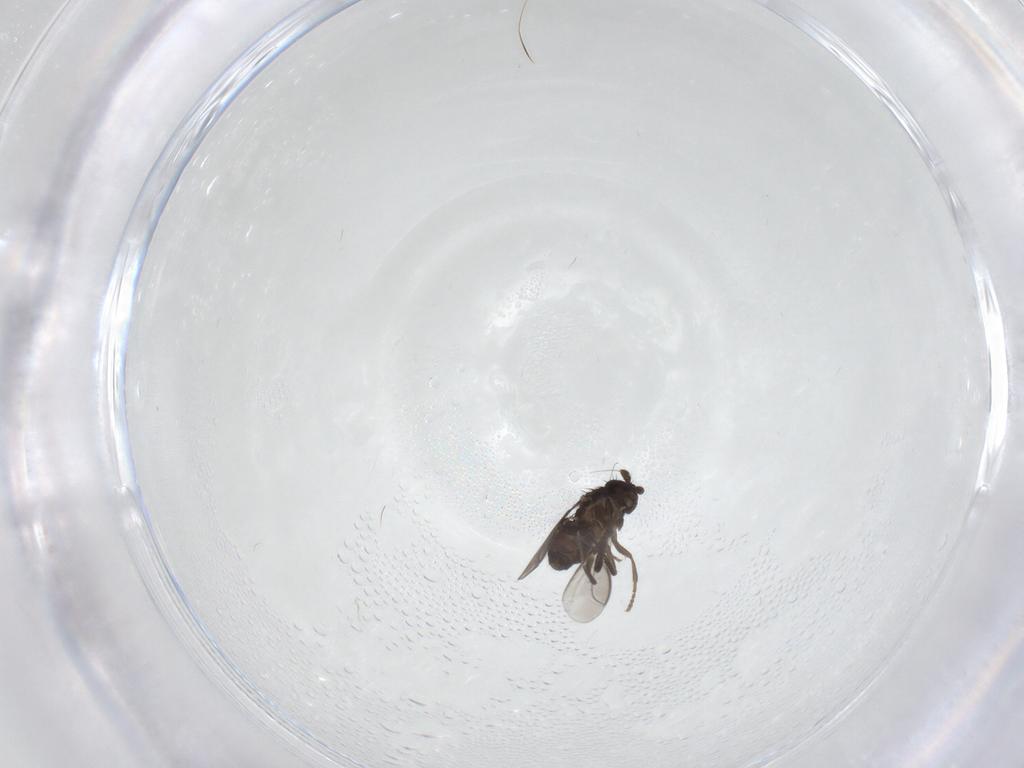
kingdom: Animalia
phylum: Arthropoda
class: Insecta
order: Diptera
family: Sphaeroceridae
